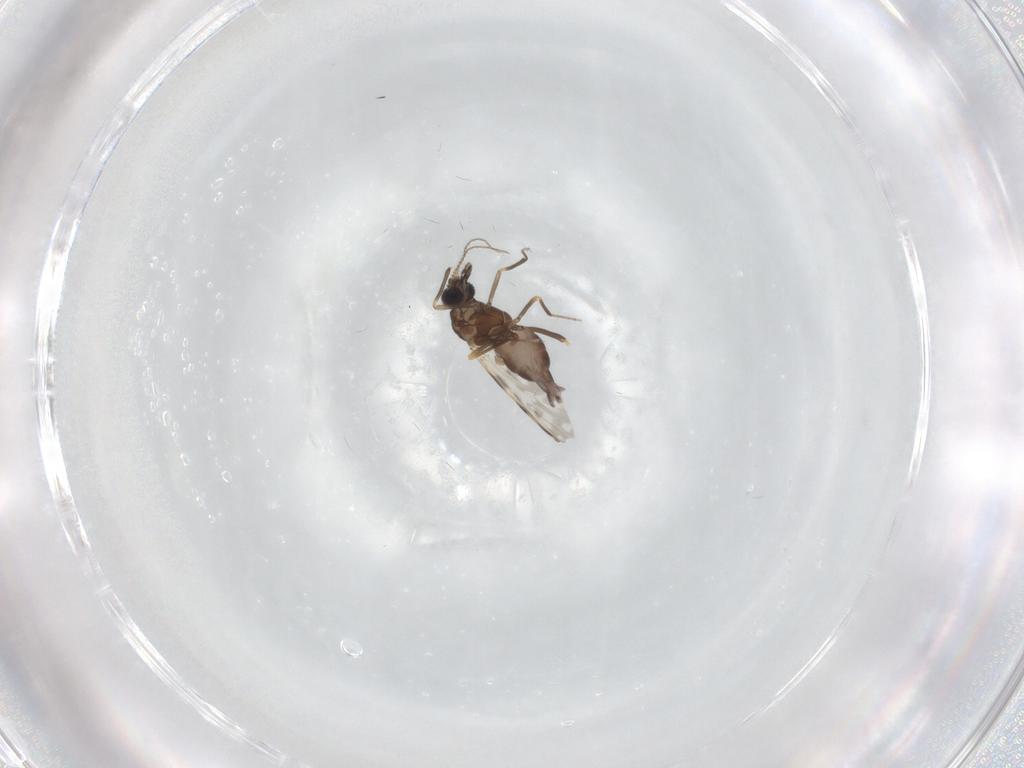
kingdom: Animalia
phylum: Arthropoda
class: Insecta
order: Diptera
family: Ceratopogonidae
